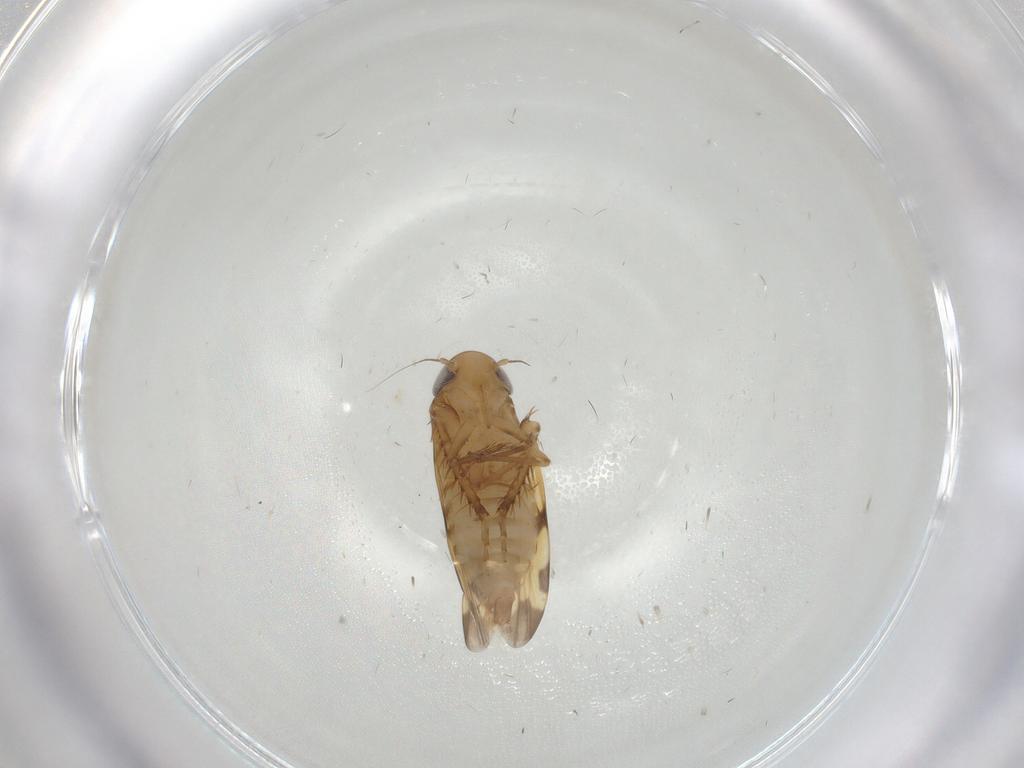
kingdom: Animalia
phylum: Arthropoda
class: Insecta
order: Hemiptera
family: Cicadellidae
